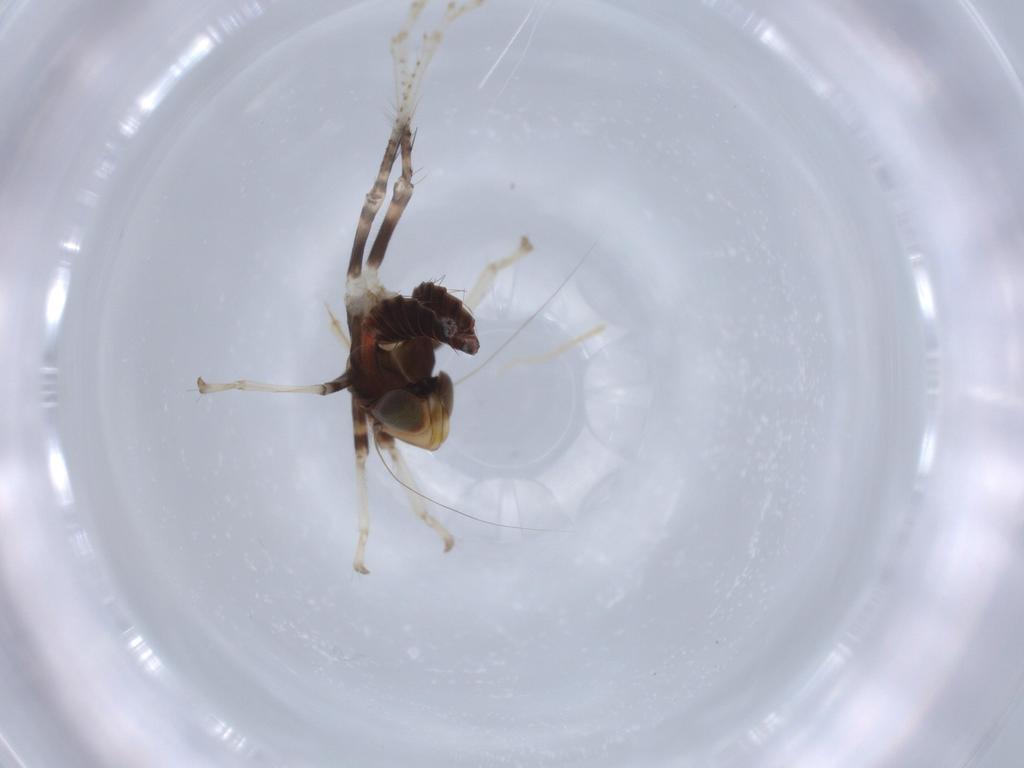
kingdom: Animalia
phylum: Arthropoda
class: Insecta
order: Hemiptera
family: Cicadellidae
